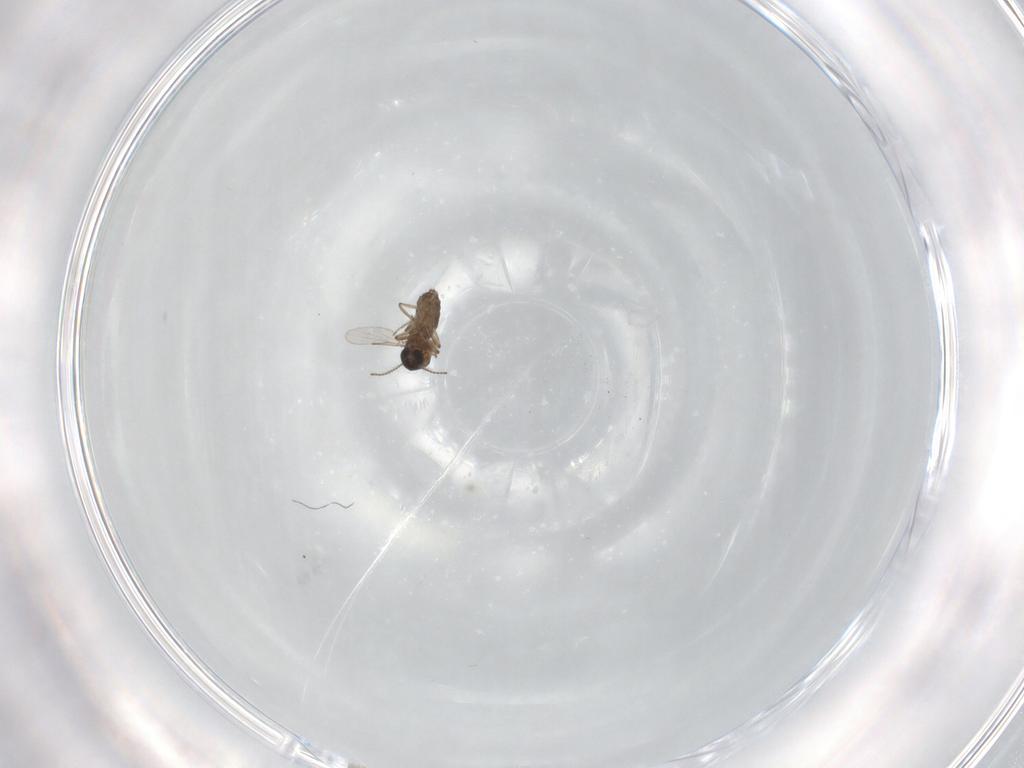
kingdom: Animalia
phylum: Arthropoda
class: Insecta
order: Diptera
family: Ceratopogonidae
